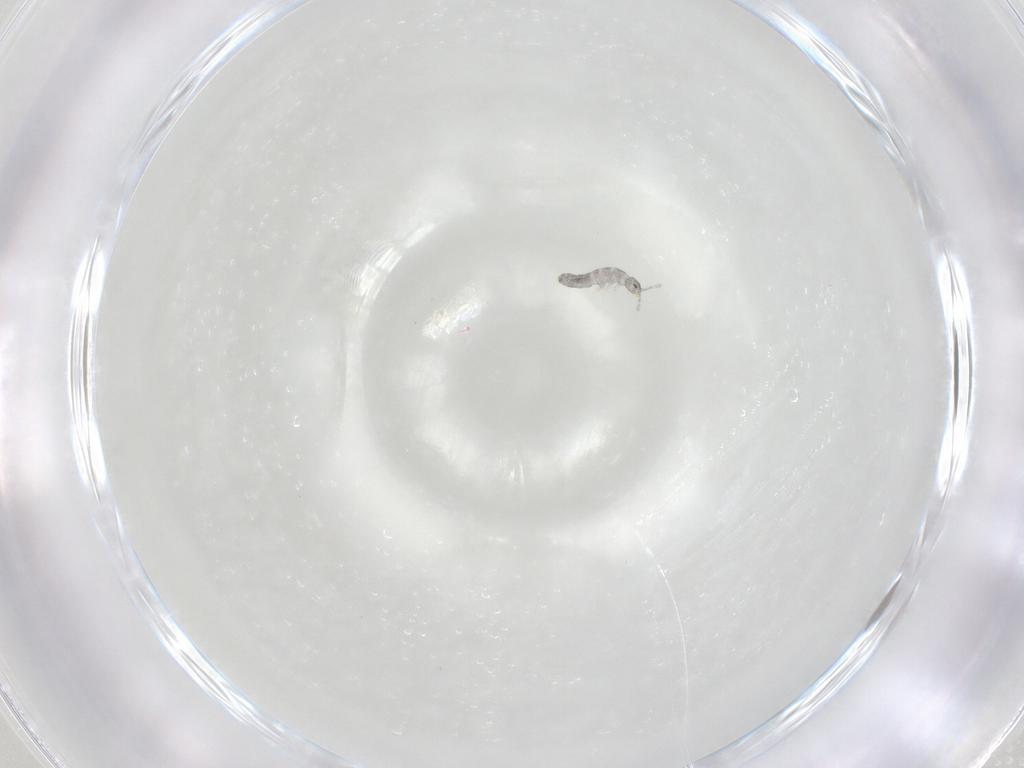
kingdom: Animalia
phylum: Arthropoda
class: Collembola
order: Entomobryomorpha
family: Isotomidae
